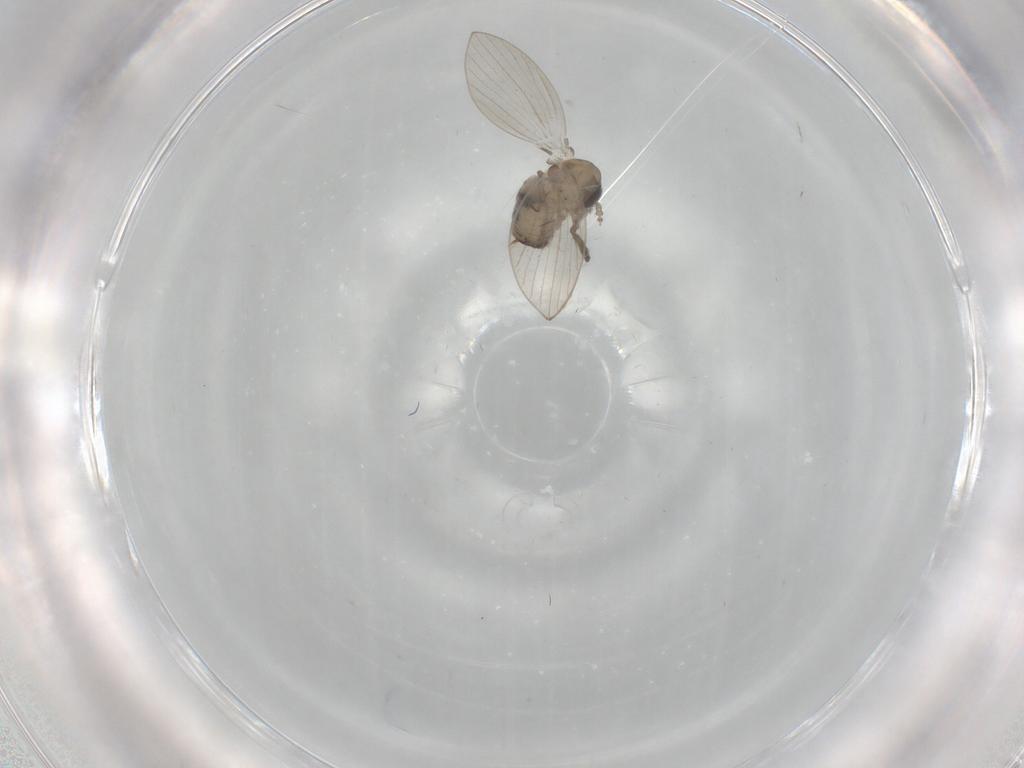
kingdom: Animalia
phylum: Arthropoda
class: Insecta
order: Diptera
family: Psychodidae
